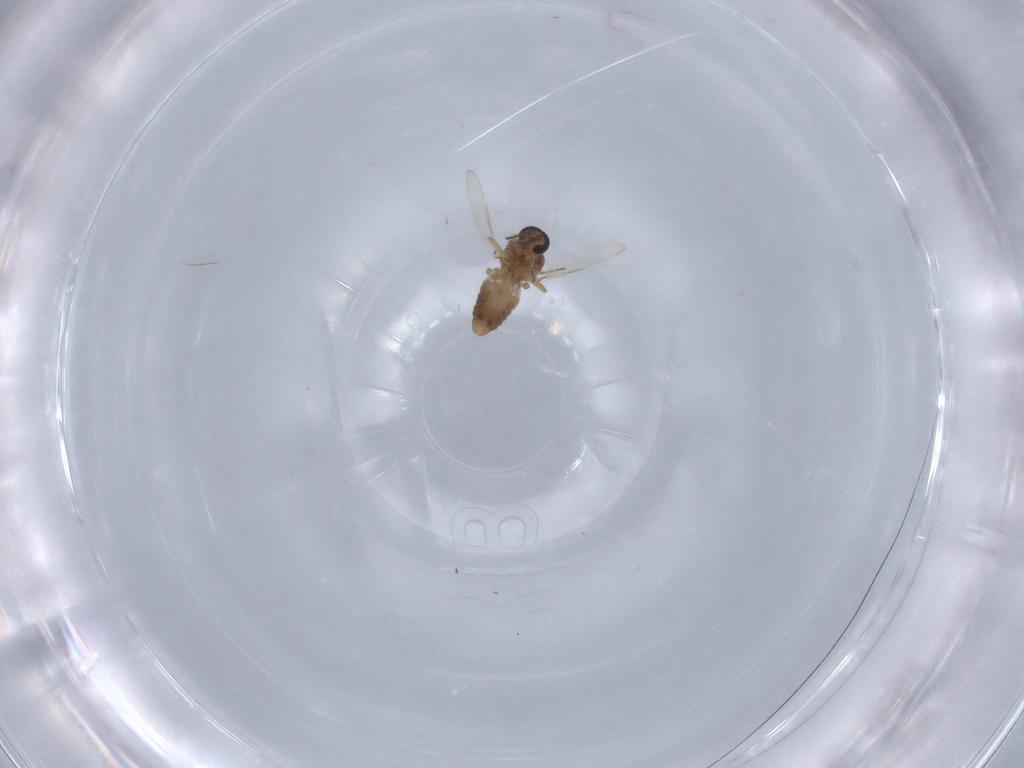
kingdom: Animalia
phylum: Arthropoda
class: Insecta
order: Diptera
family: Ceratopogonidae
